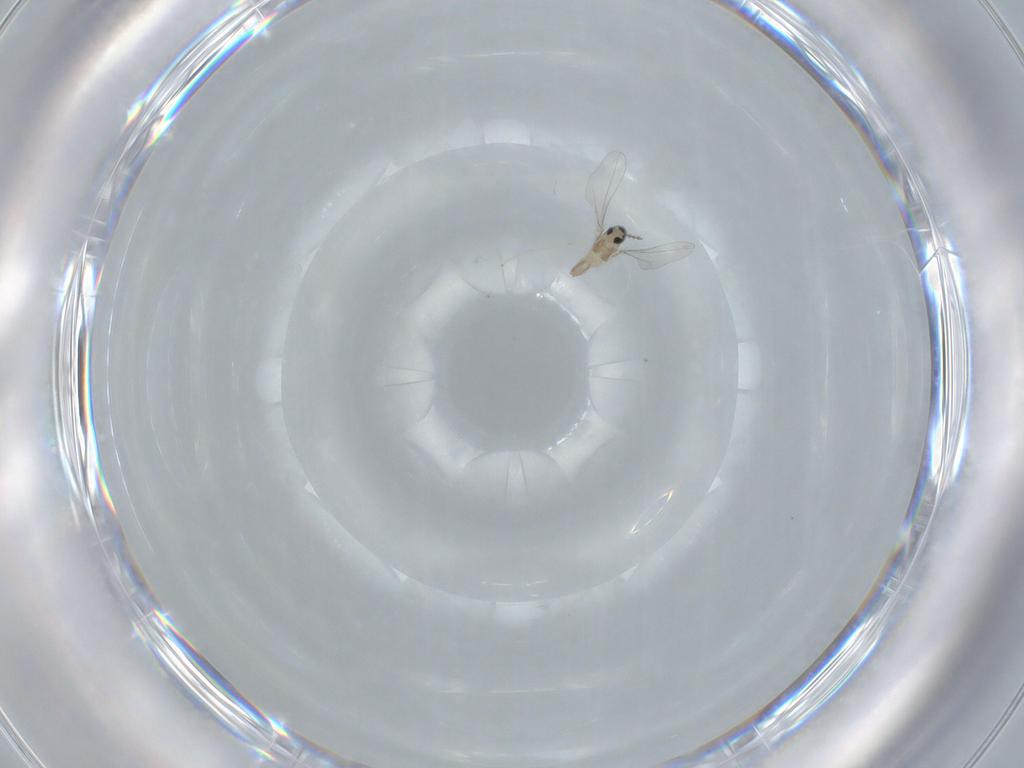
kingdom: Animalia
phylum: Arthropoda
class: Insecta
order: Diptera
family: Cecidomyiidae
